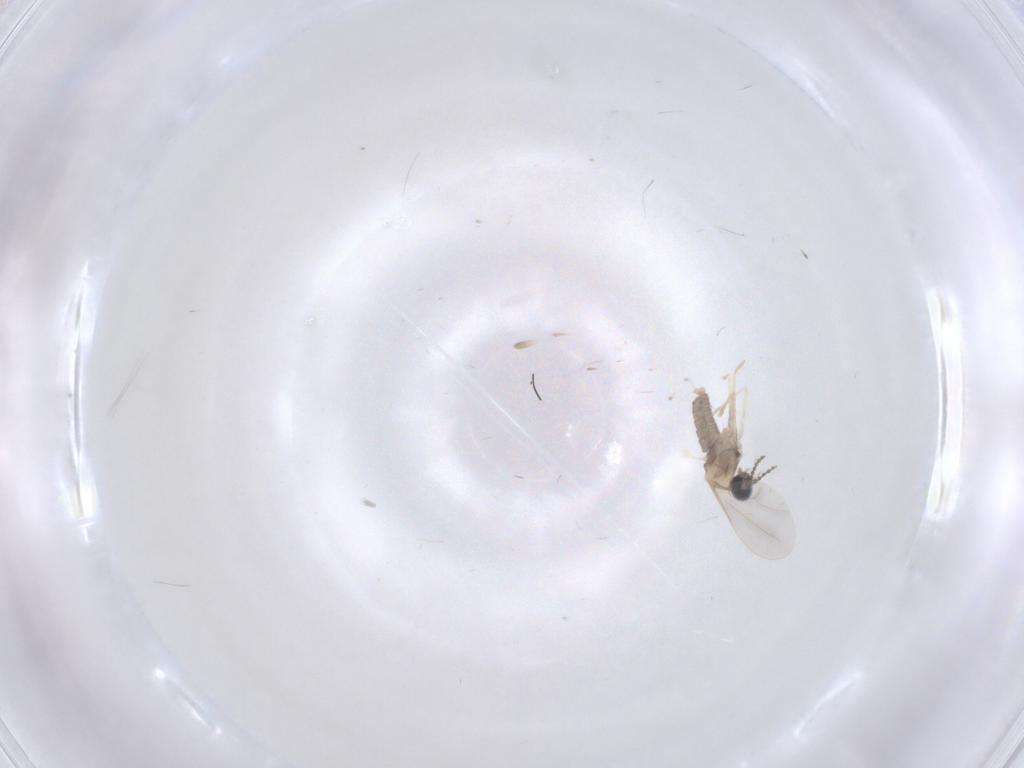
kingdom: Animalia
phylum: Arthropoda
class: Insecta
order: Diptera
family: Cecidomyiidae
